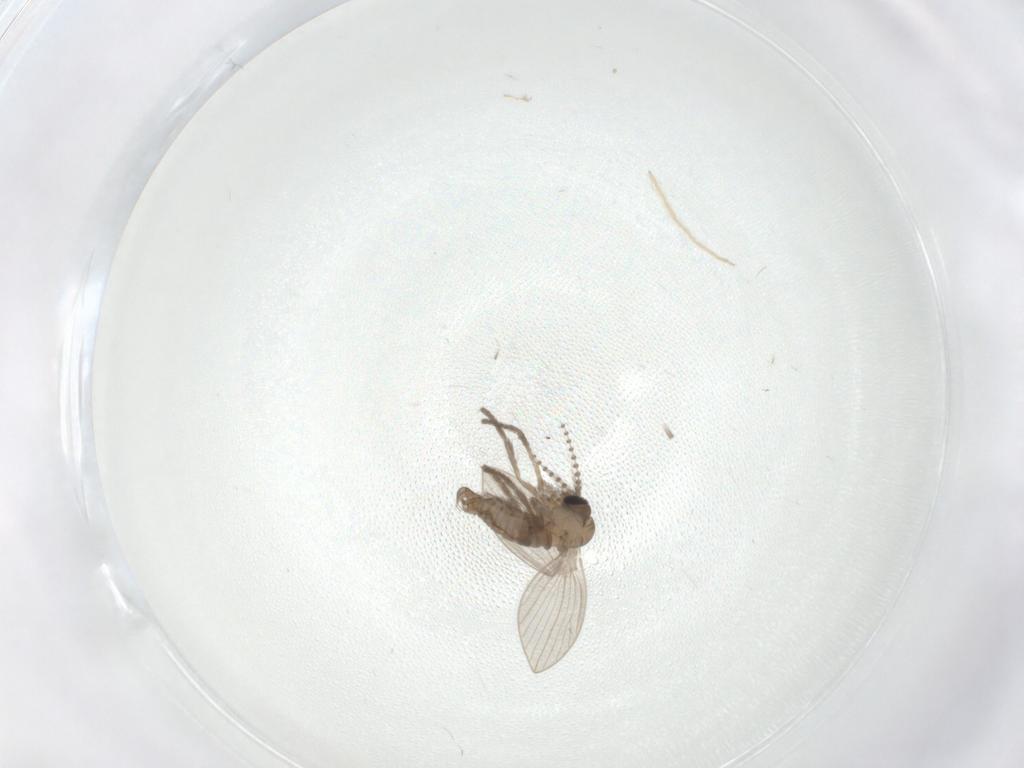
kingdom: Animalia
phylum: Arthropoda
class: Insecta
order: Diptera
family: Psychodidae
